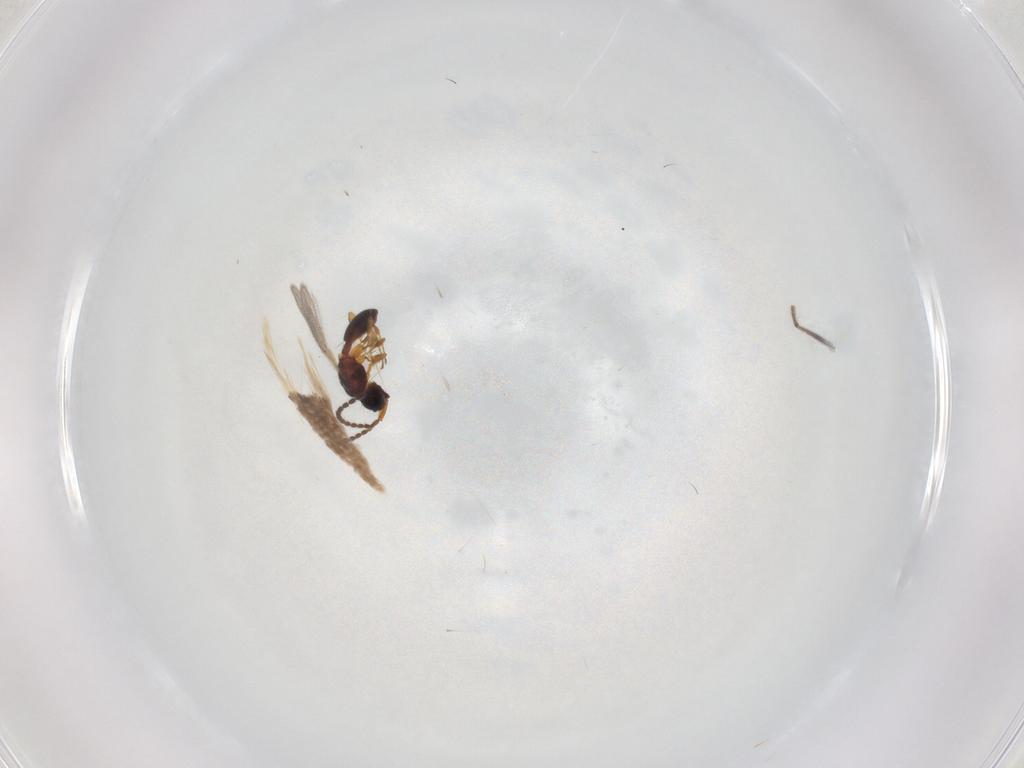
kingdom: Animalia
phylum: Arthropoda
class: Insecta
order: Hymenoptera
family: Diapriidae
